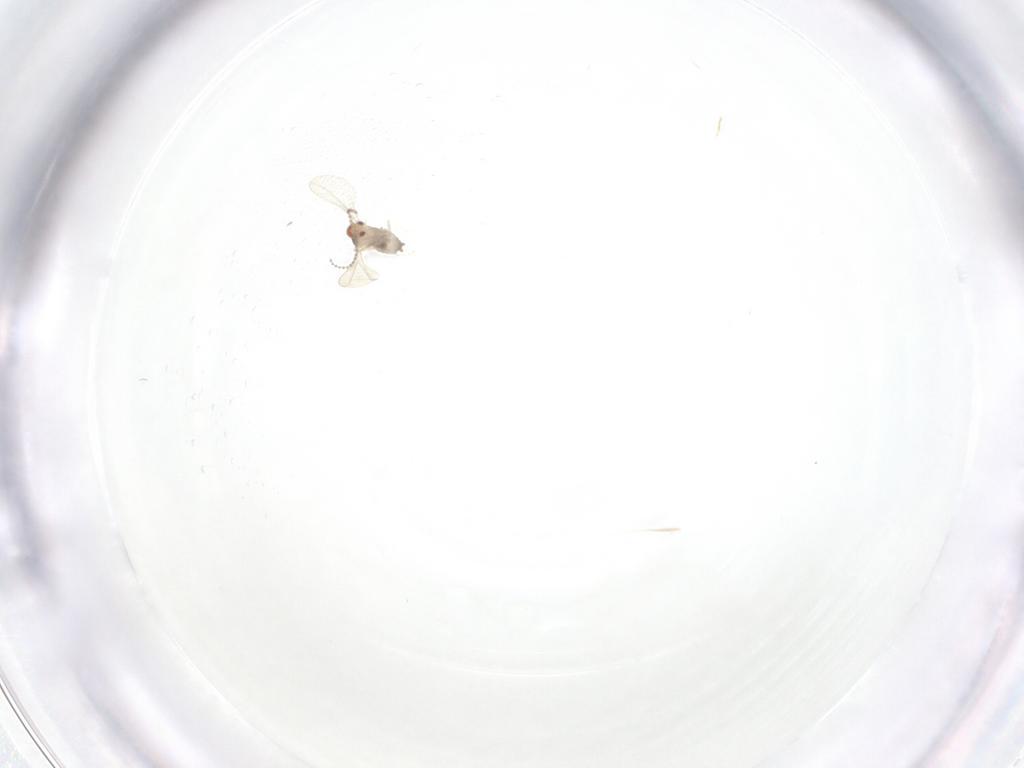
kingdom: Animalia
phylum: Arthropoda
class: Insecta
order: Diptera
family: Cecidomyiidae
